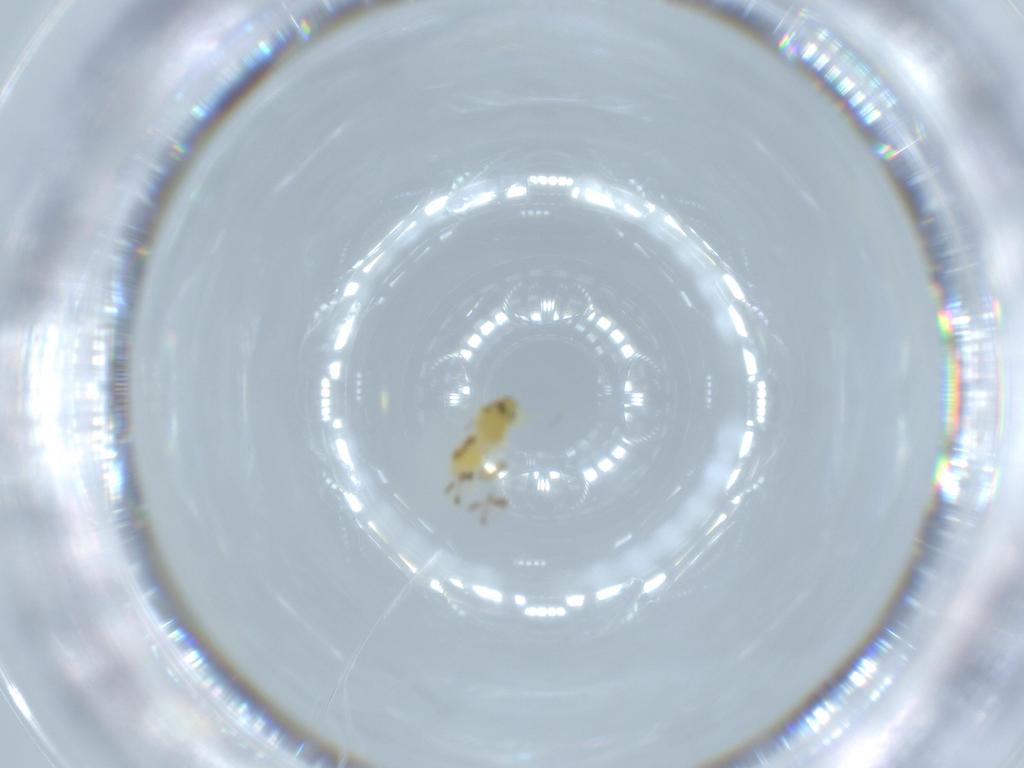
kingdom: Animalia
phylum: Arthropoda
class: Insecta
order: Hemiptera
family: Aleyrodidae
